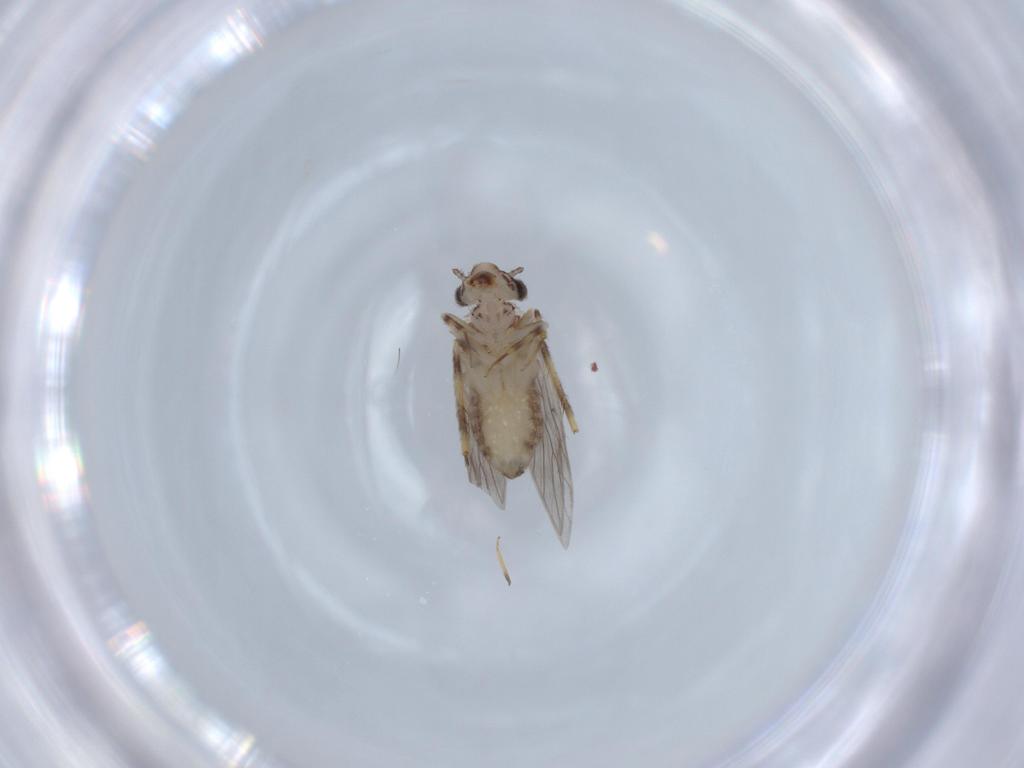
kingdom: Animalia
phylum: Arthropoda
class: Insecta
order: Psocodea
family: Lepidopsocidae
